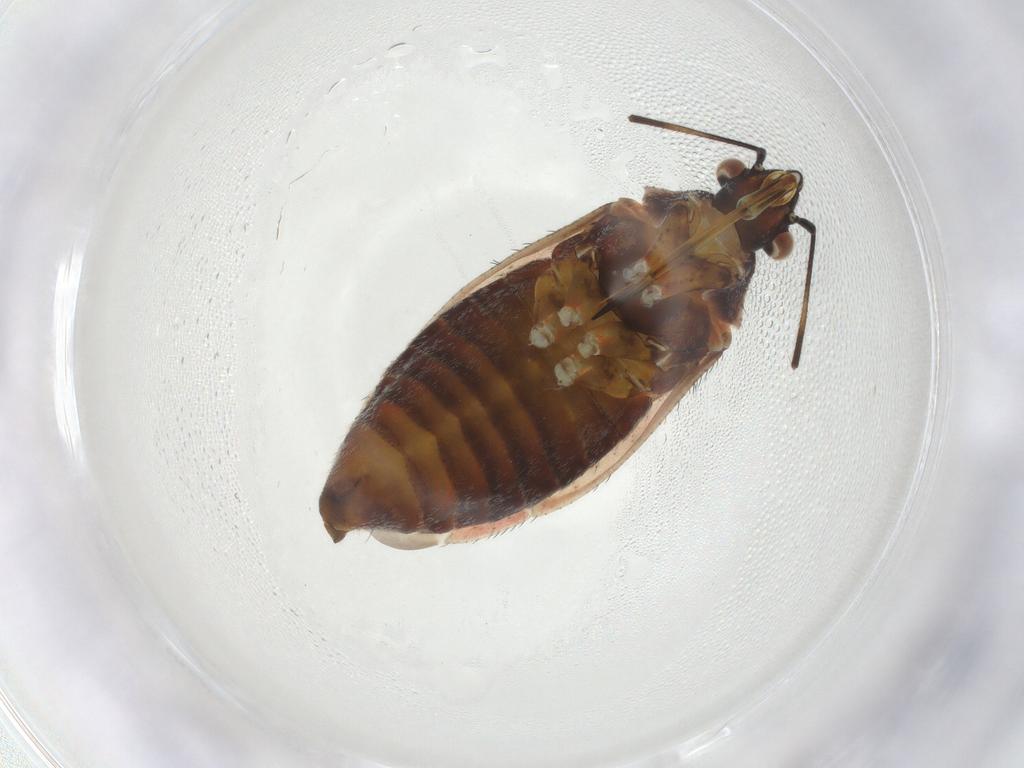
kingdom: Animalia
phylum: Arthropoda
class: Insecta
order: Hemiptera
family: Miridae
